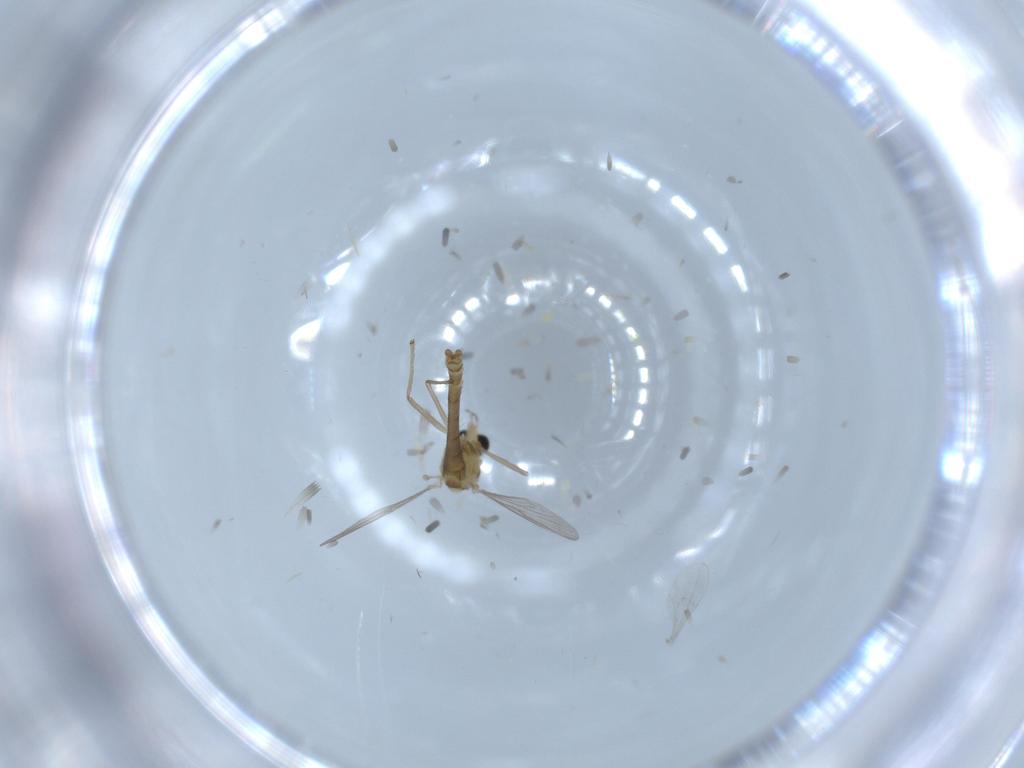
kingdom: Animalia
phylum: Arthropoda
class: Insecta
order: Diptera
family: Chironomidae
